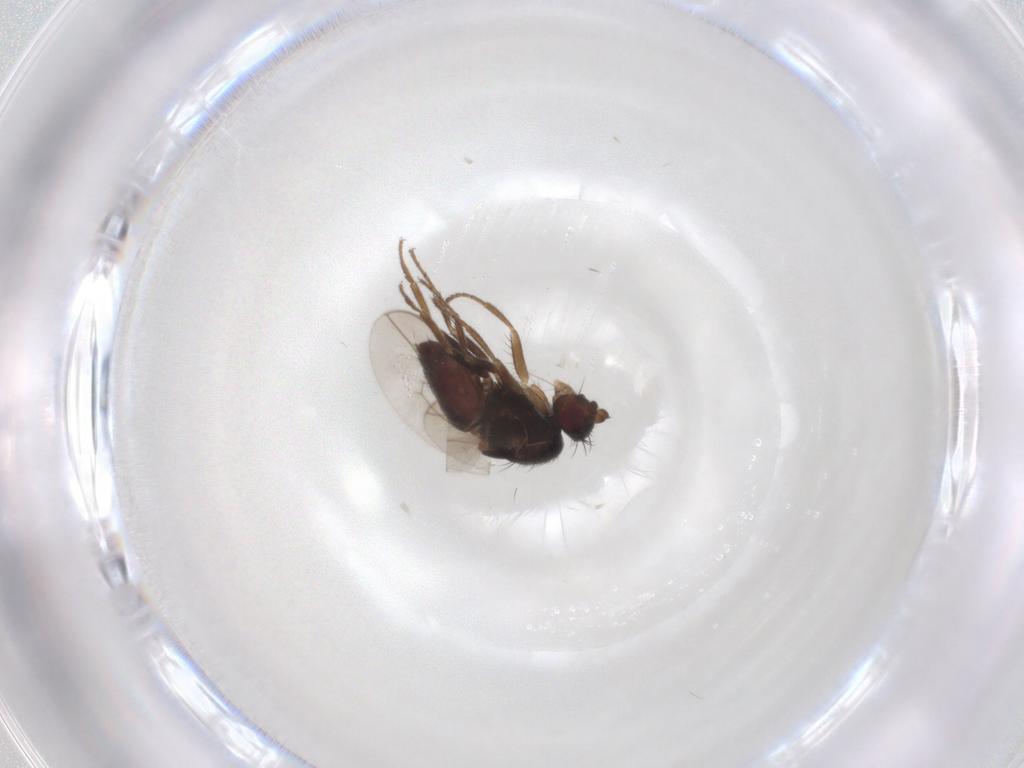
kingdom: Animalia
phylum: Arthropoda
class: Insecta
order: Diptera
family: Sphaeroceridae
